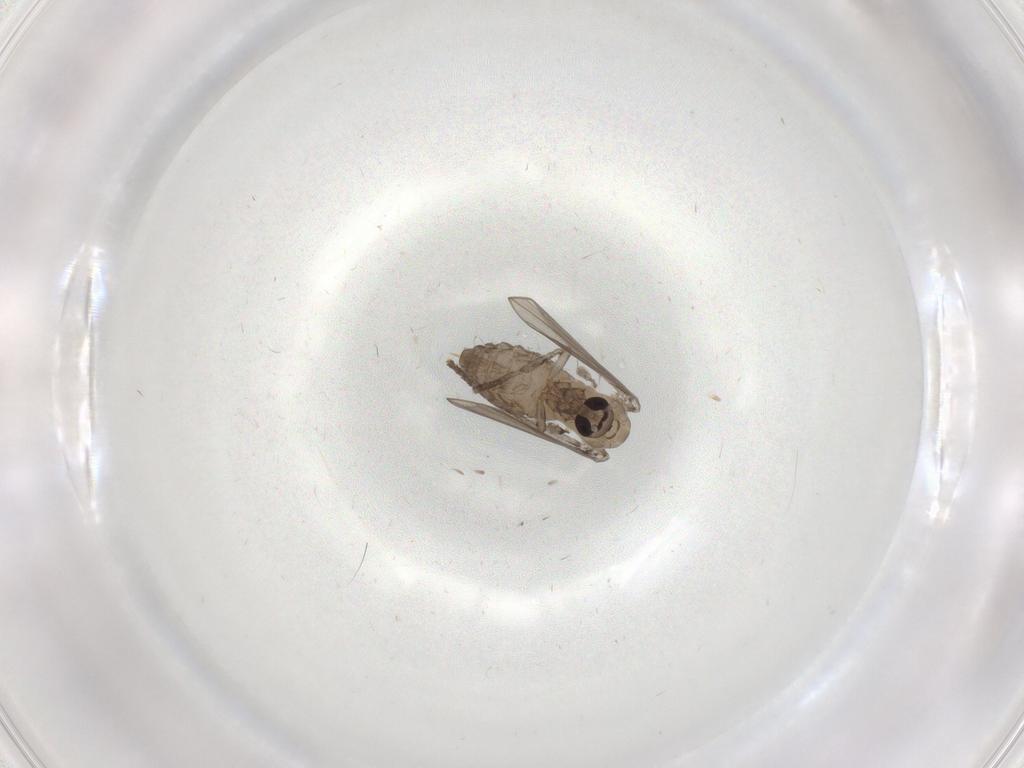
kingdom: Animalia
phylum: Arthropoda
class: Insecta
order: Diptera
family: Psychodidae
